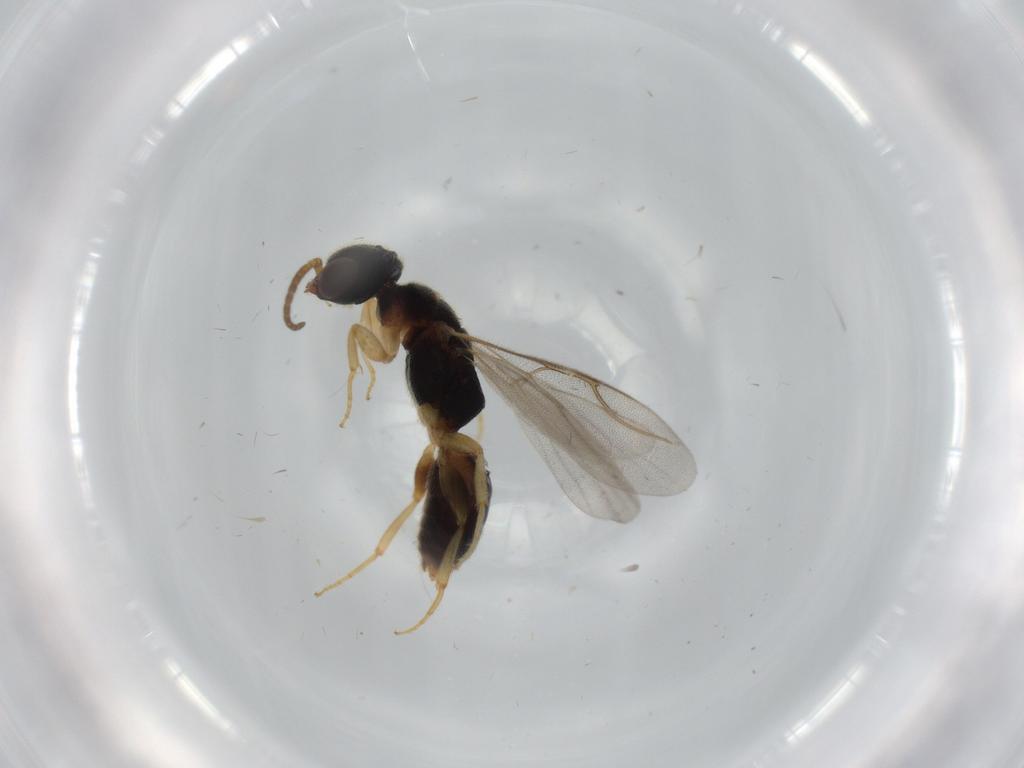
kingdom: Animalia
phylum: Arthropoda
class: Insecta
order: Hymenoptera
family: Bethylidae
